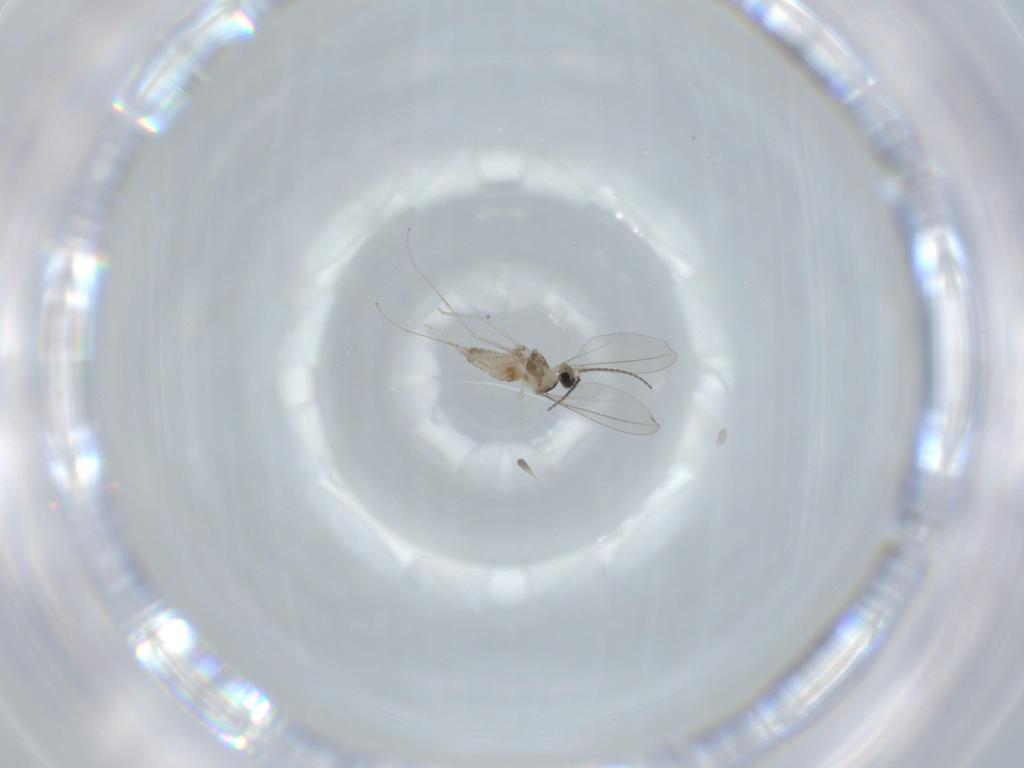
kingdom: Animalia
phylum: Arthropoda
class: Insecta
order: Diptera
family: Cecidomyiidae
